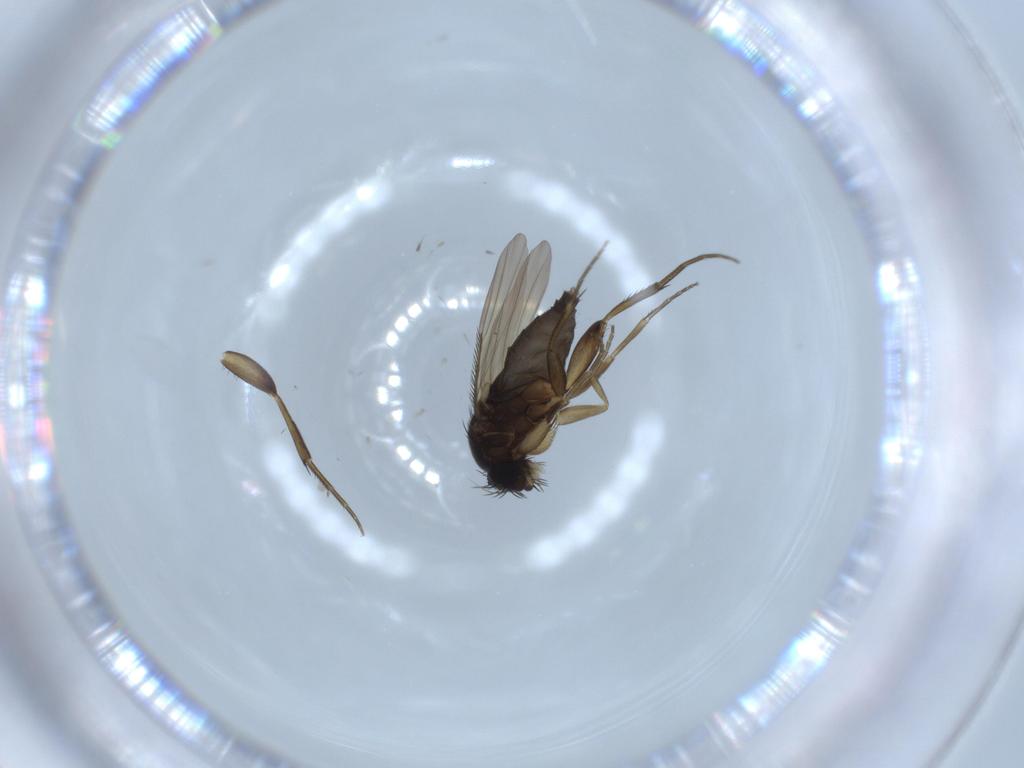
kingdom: Animalia
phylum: Arthropoda
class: Insecta
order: Diptera
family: Phoridae
